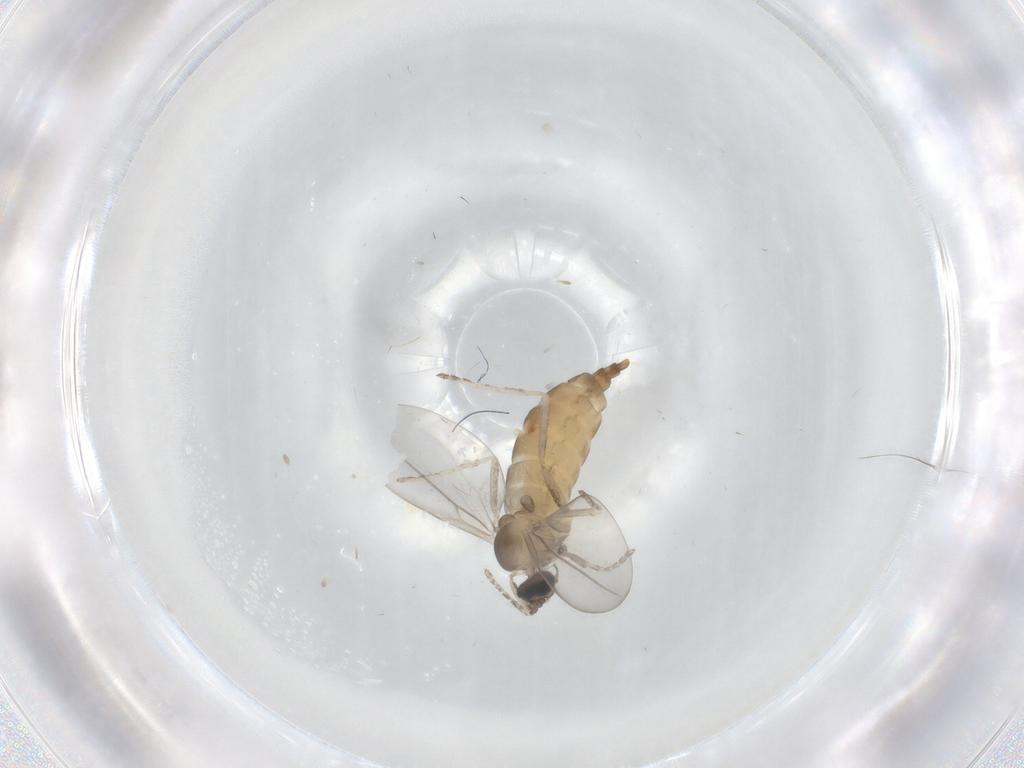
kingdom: Animalia
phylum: Arthropoda
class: Insecta
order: Diptera
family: Cecidomyiidae
